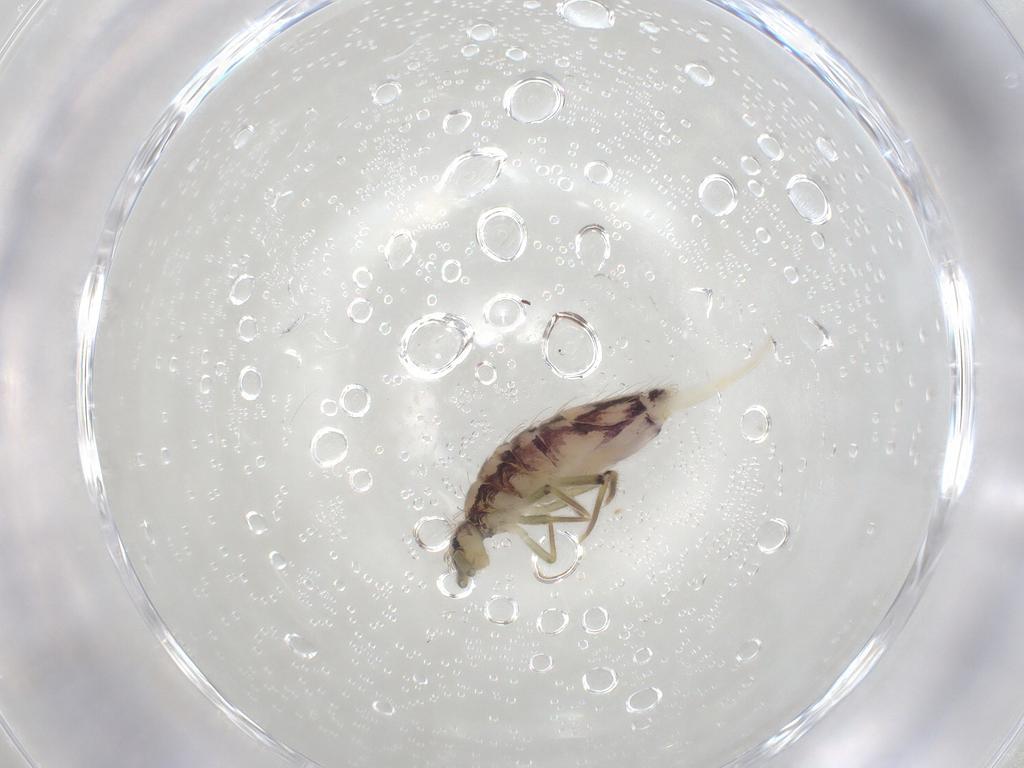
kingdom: Animalia
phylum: Arthropoda
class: Collembola
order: Entomobryomorpha
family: Entomobryidae
